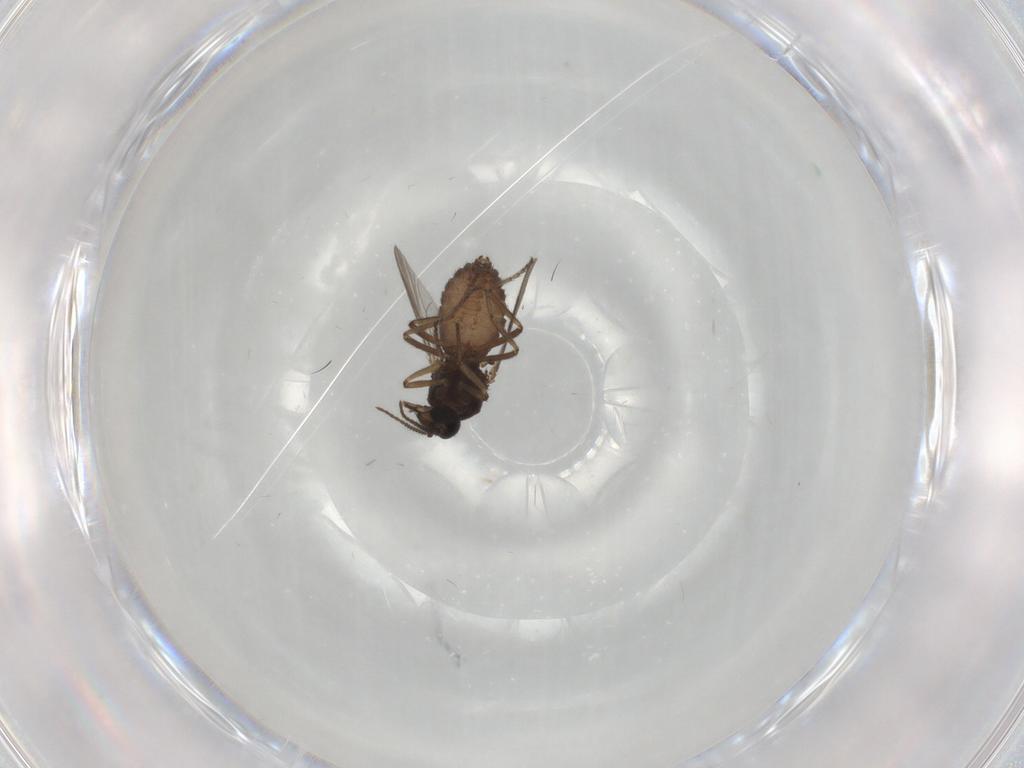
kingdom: Animalia
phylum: Arthropoda
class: Insecta
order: Diptera
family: Ceratopogonidae
